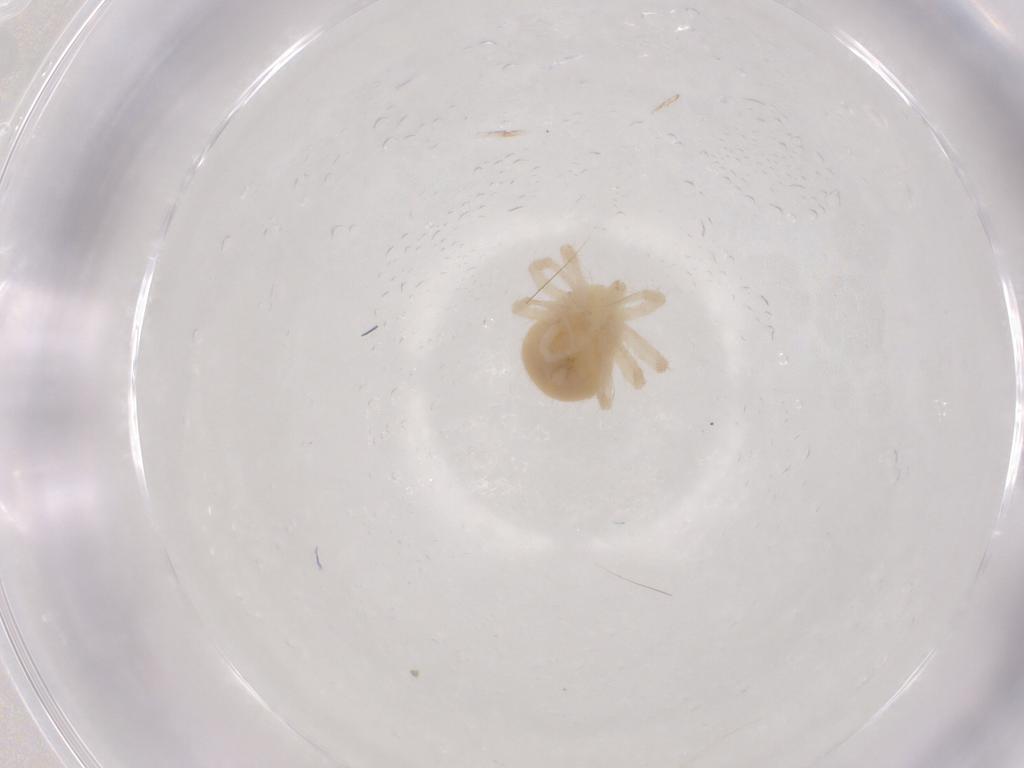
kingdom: Animalia
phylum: Arthropoda
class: Arachnida
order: Trombidiformes
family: Anystidae
